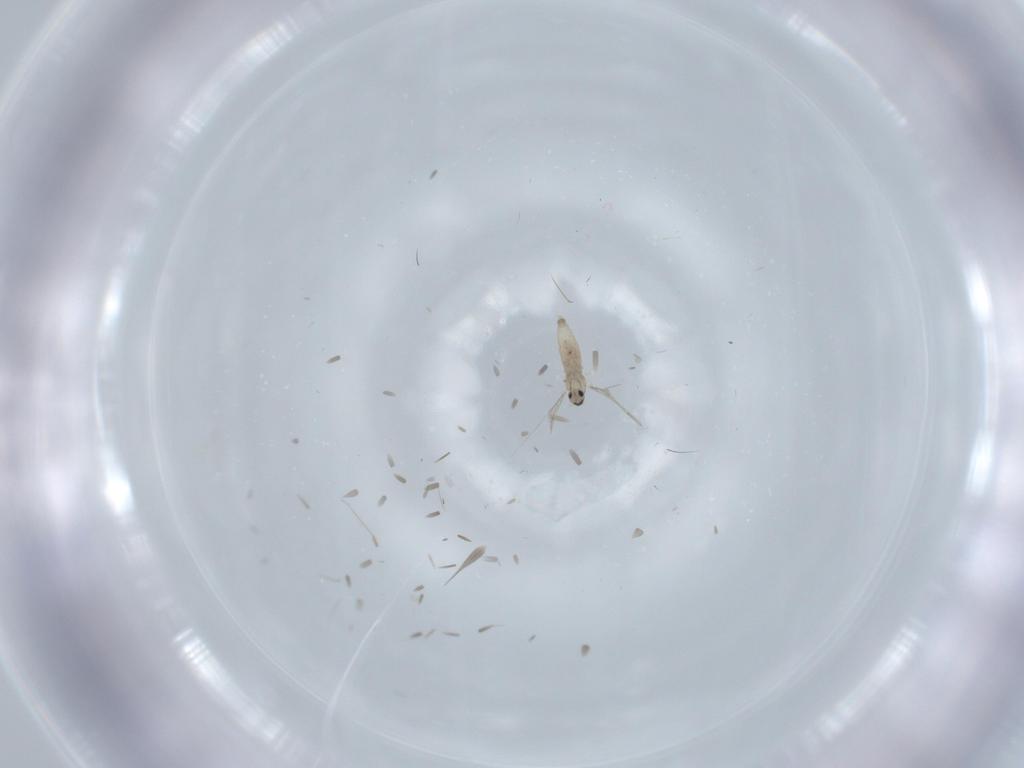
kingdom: Animalia
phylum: Arthropoda
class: Insecta
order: Diptera
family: Cecidomyiidae
